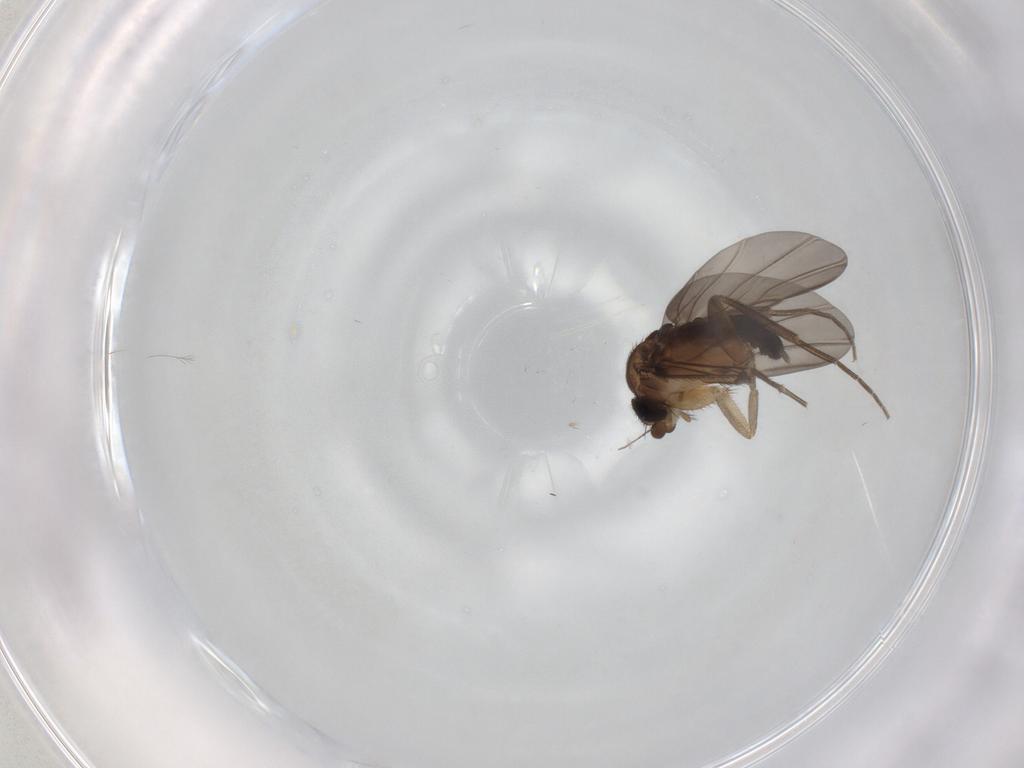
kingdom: Animalia
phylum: Arthropoda
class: Insecta
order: Diptera
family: Phoridae
